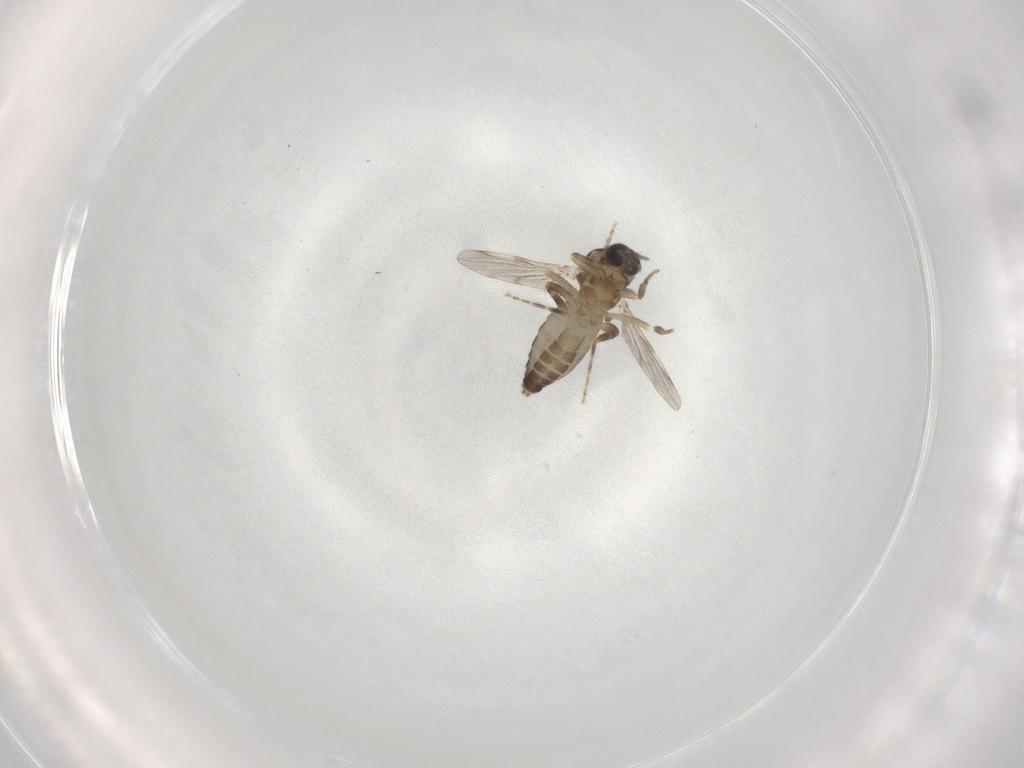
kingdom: Animalia
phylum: Arthropoda
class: Insecta
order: Diptera
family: Ceratopogonidae
